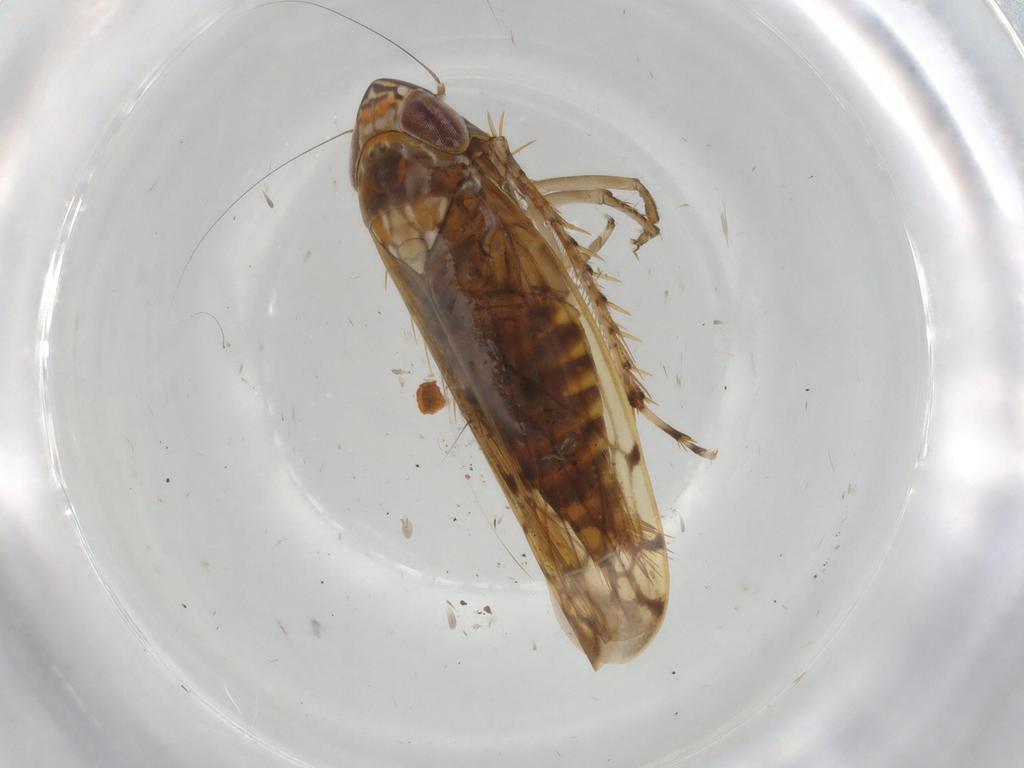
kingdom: Animalia
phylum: Arthropoda
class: Insecta
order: Hemiptera
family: Cicadellidae
